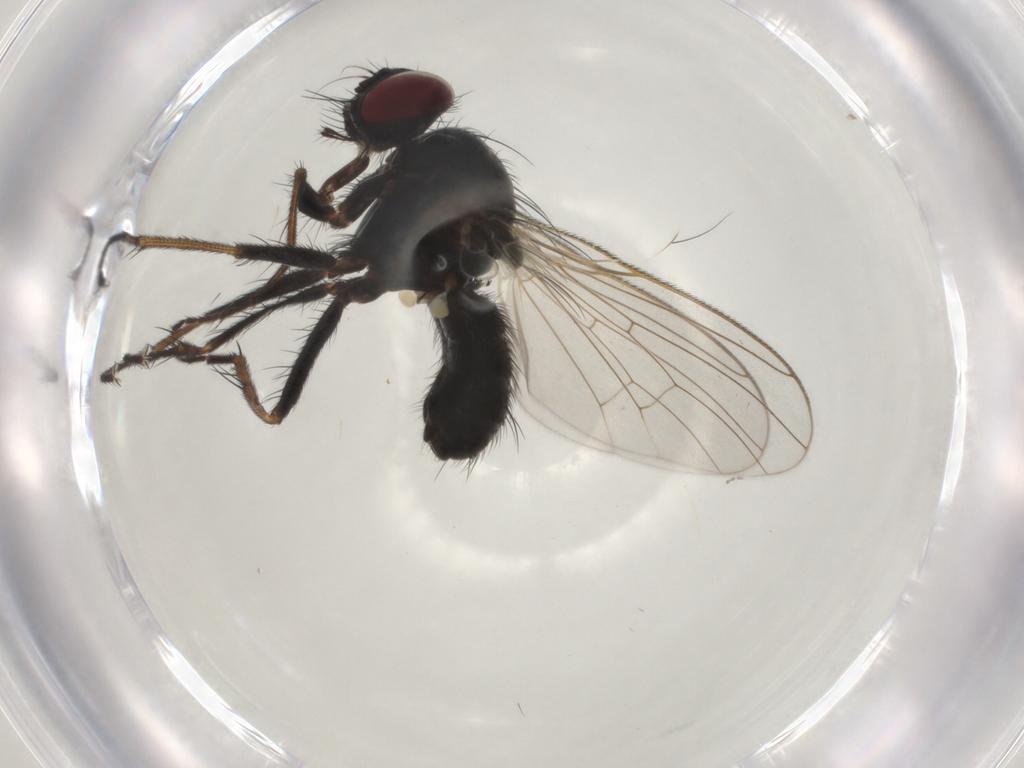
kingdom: Animalia
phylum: Arthropoda
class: Insecta
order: Diptera
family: Muscidae
